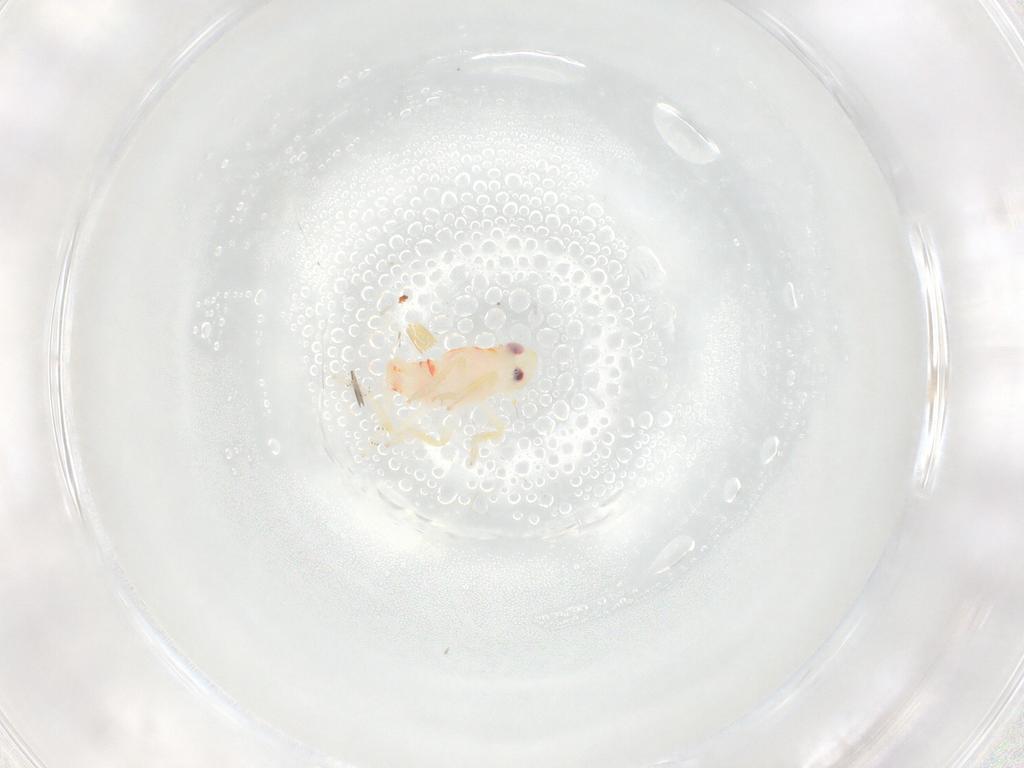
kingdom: Animalia
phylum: Arthropoda
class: Insecta
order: Hemiptera
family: Tropiduchidae
